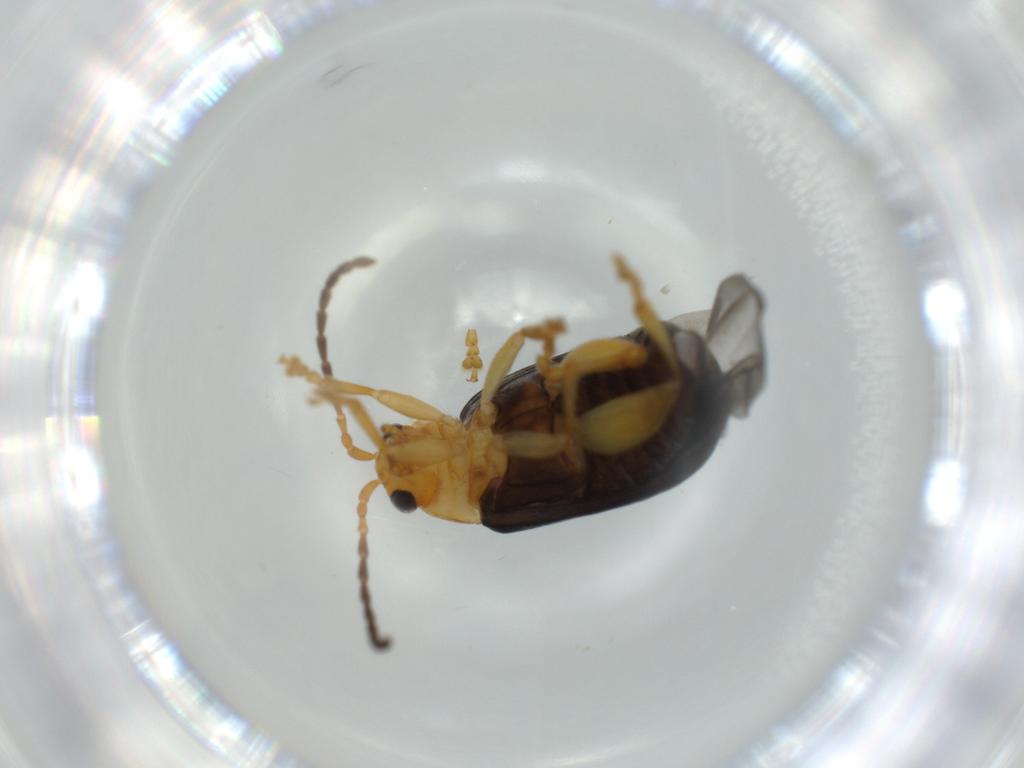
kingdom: Animalia
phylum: Arthropoda
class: Insecta
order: Coleoptera
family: Chrysomelidae
